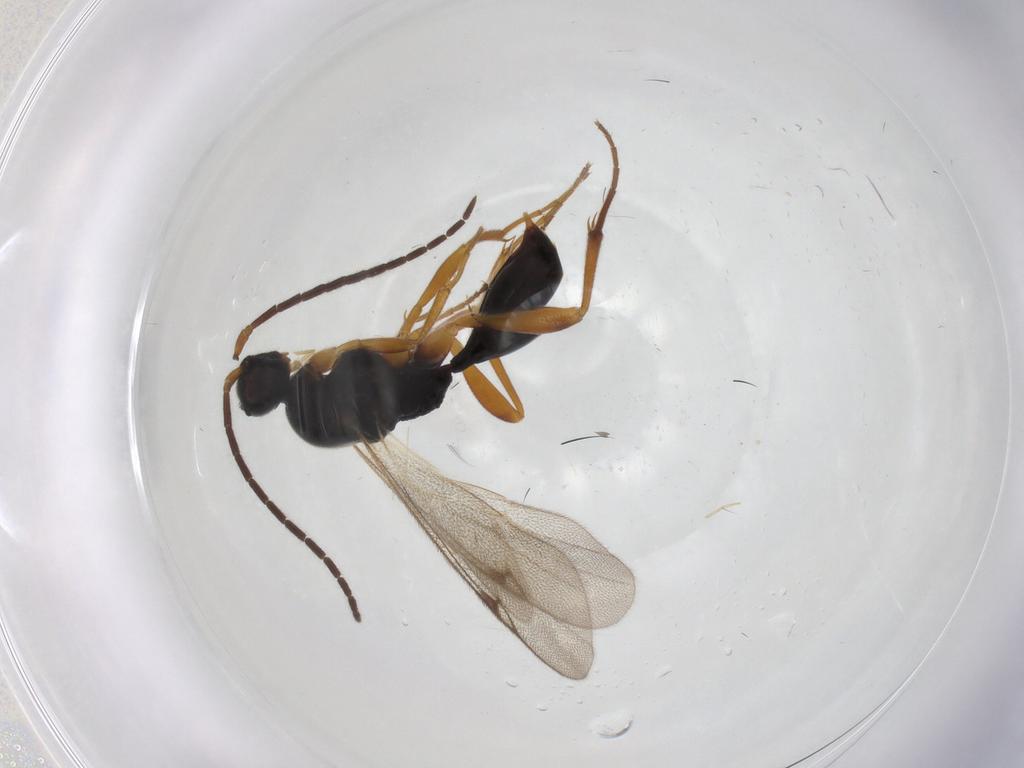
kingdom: Animalia
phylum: Arthropoda
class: Insecta
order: Hymenoptera
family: Proctotrupidae
